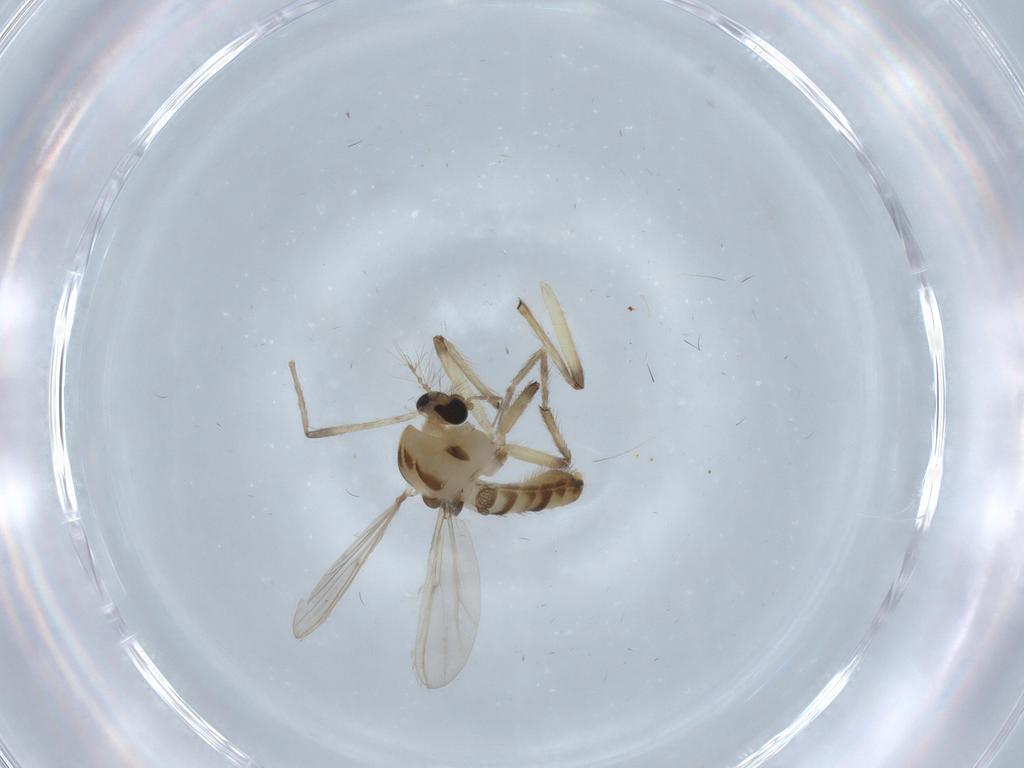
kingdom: Animalia
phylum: Arthropoda
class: Insecta
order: Diptera
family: Chironomidae
